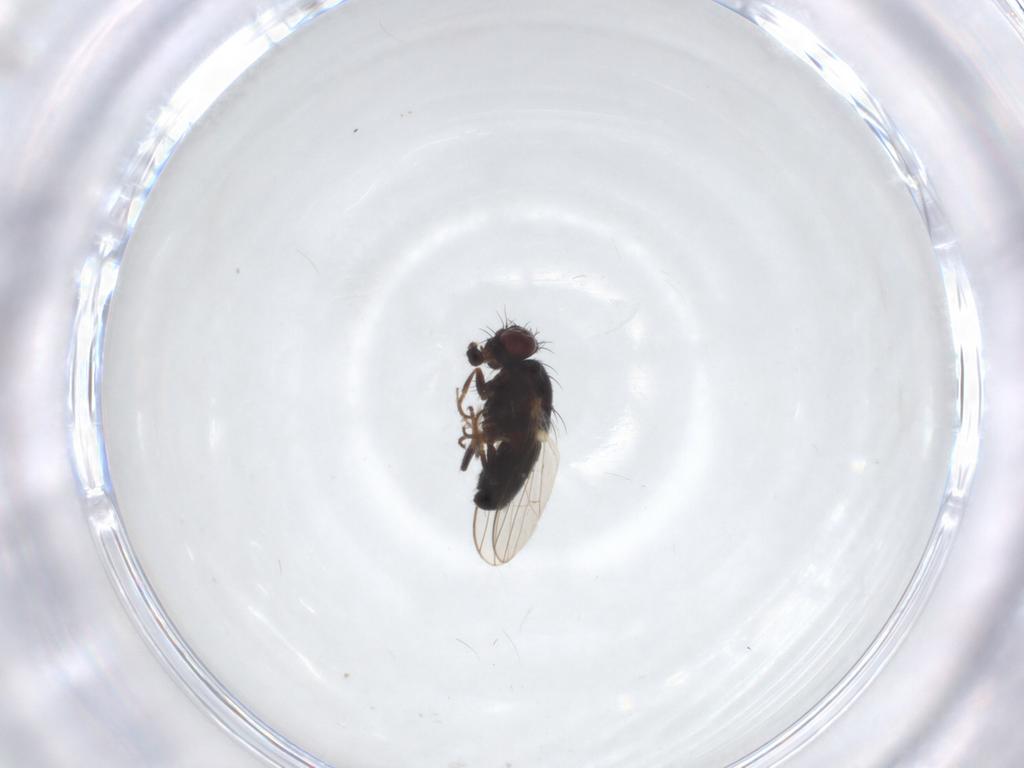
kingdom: Animalia
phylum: Arthropoda
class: Insecta
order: Diptera
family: Carnidae
